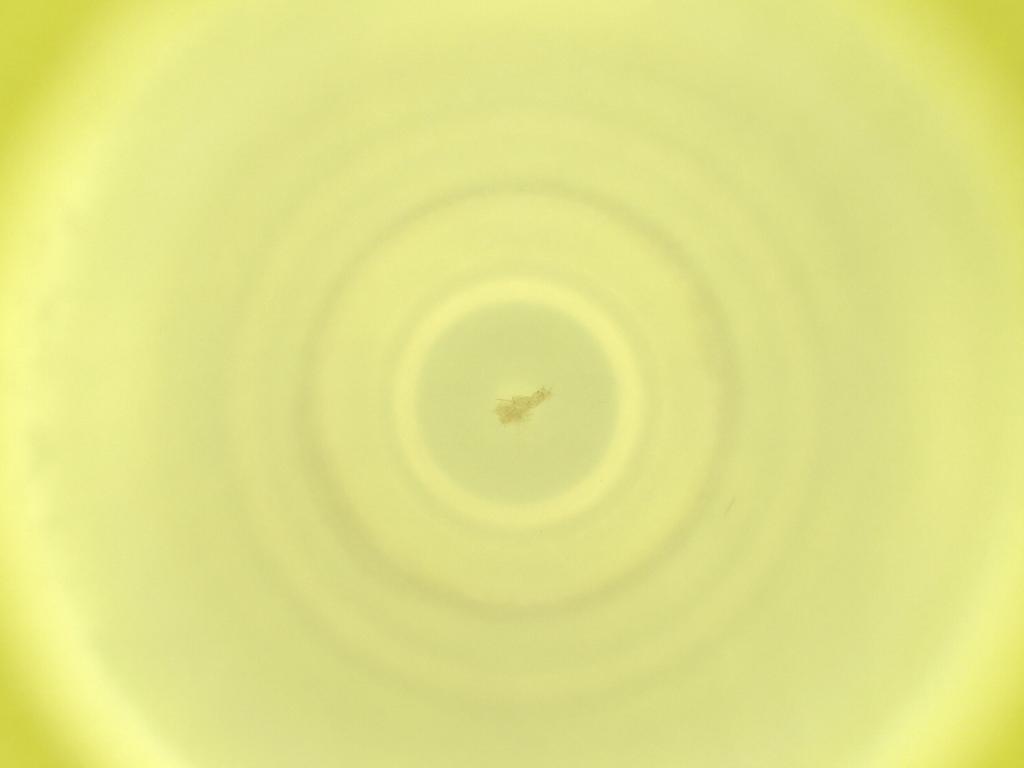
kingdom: Animalia
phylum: Arthropoda
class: Insecta
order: Diptera
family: Cecidomyiidae
